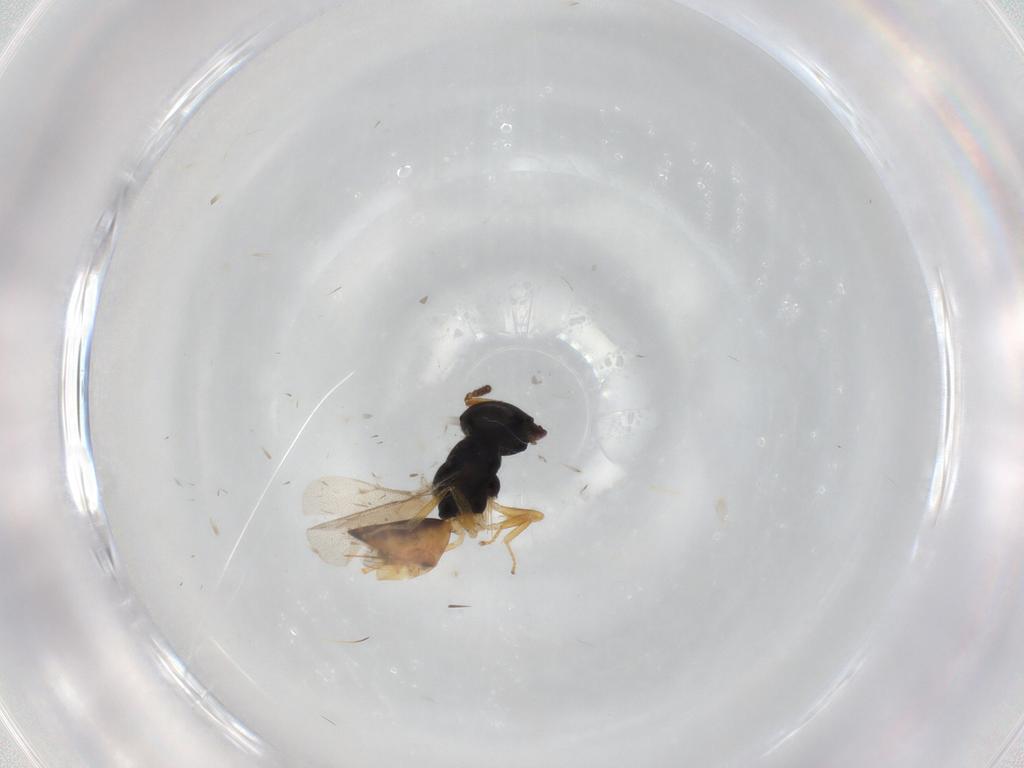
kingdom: Animalia
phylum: Arthropoda
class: Insecta
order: Hymenoptera
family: Pteromalidae
